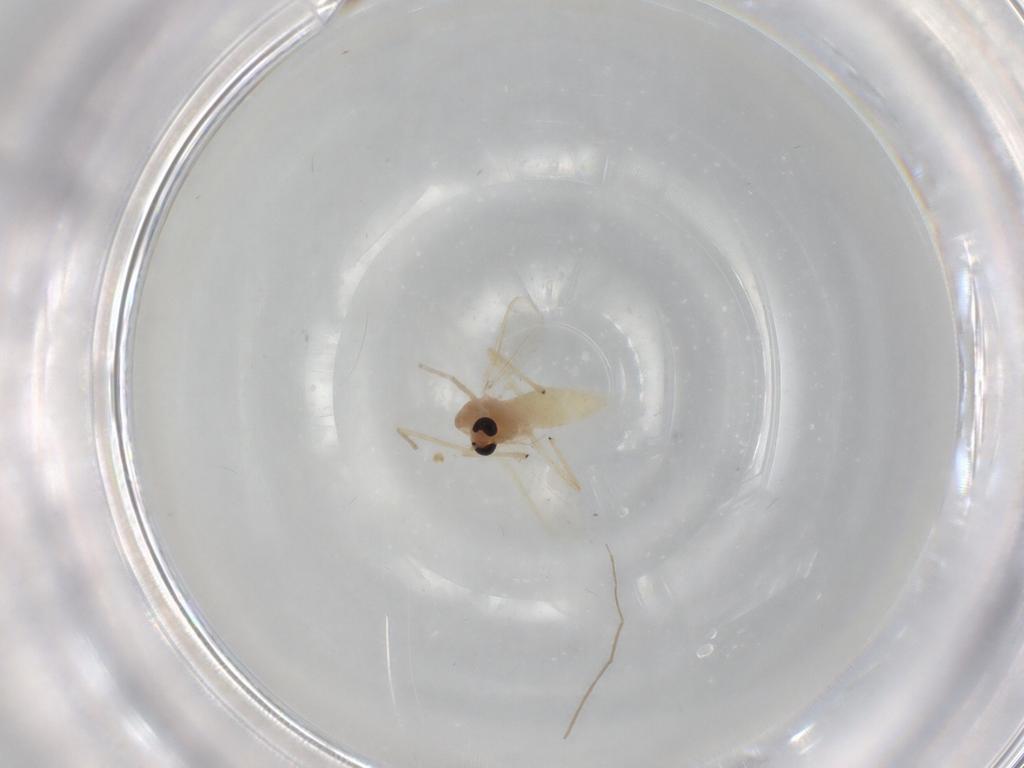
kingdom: Animalia
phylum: Arthropoda
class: Insecta
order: Diptera
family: Chironomidae
